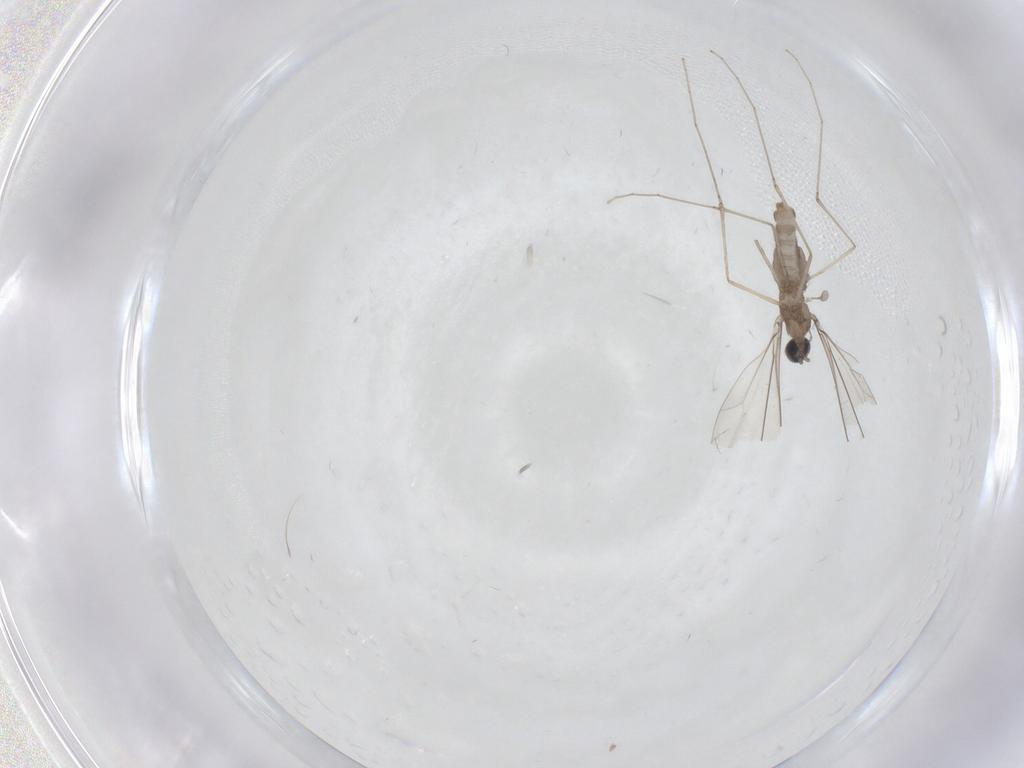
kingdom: Animalia
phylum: Arthropoda
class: Insecta
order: Diptera
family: Cecidomyiidae
